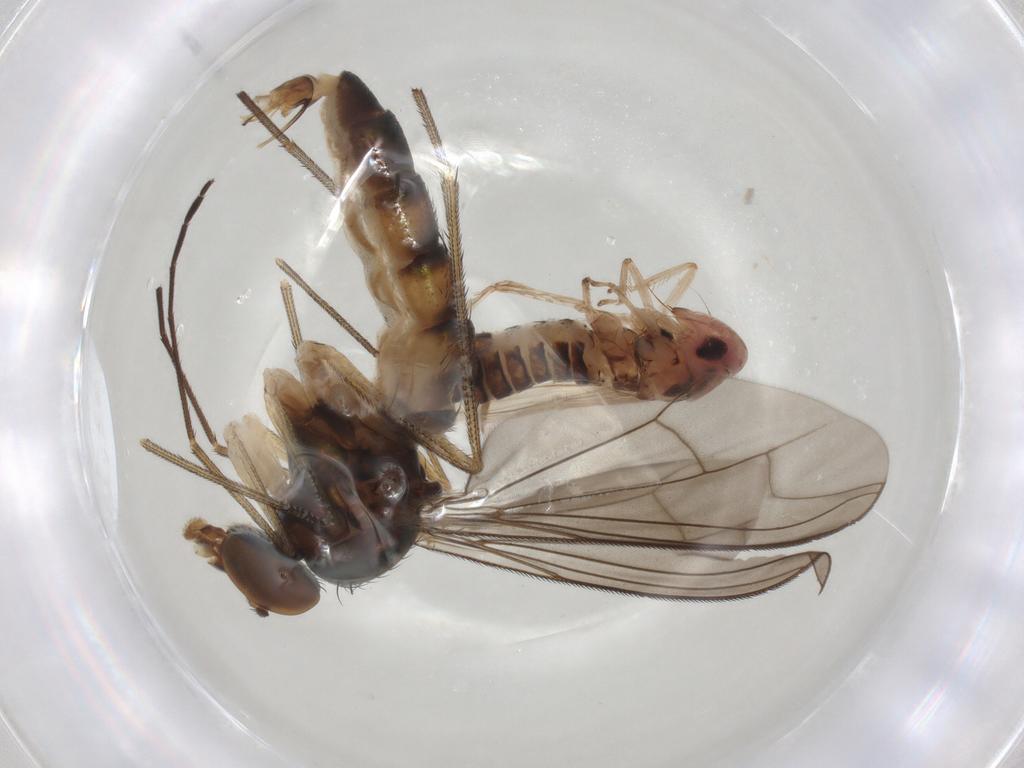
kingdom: Animalia
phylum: Arthropoda
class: Insecta
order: Diptera
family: Dolichopodidae
